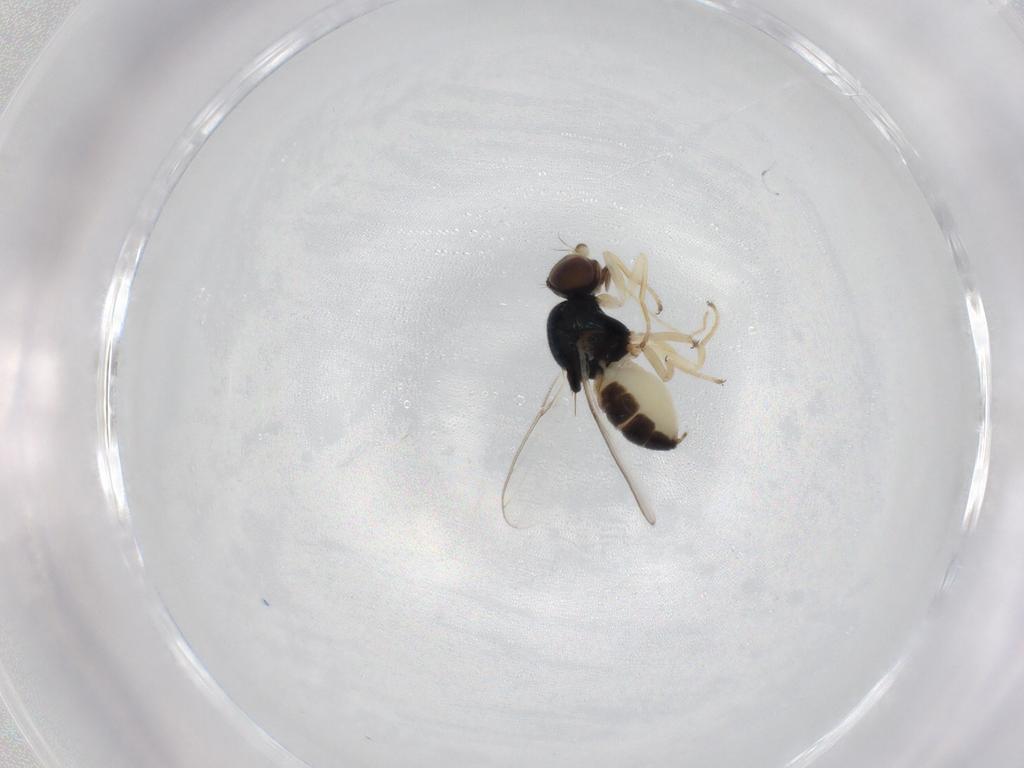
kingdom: Animalia
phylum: Arthropoda
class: Insecta
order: Diptera
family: Chloropidae
